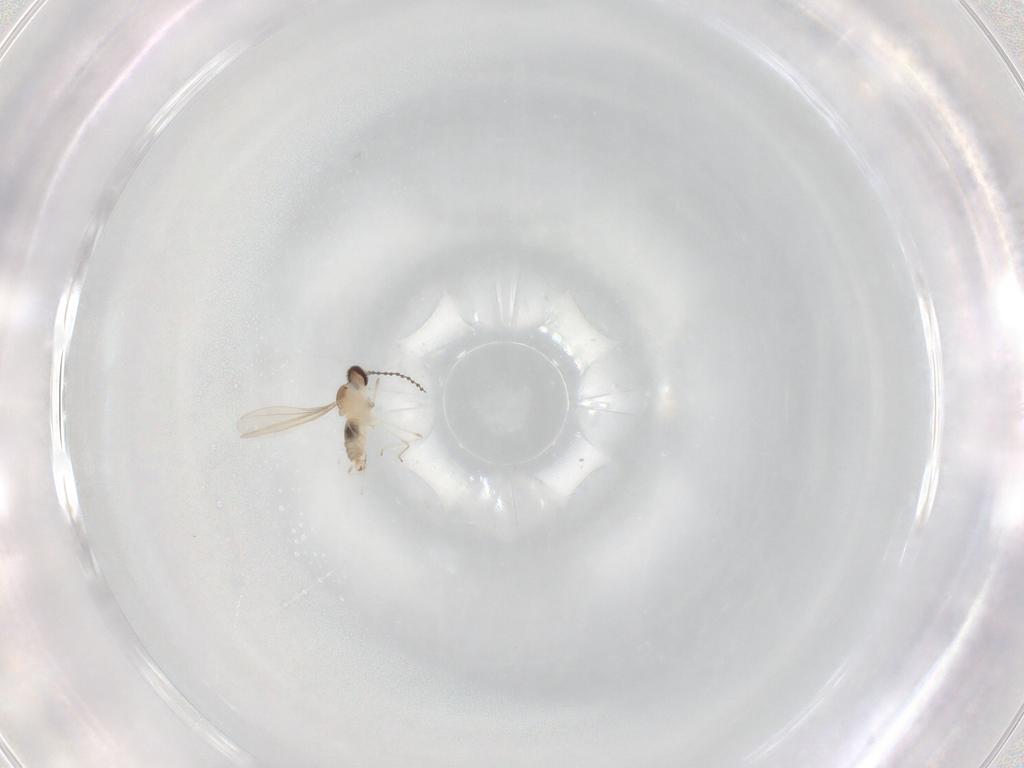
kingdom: Animalia
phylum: Arthropoda
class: Insecta
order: Diptera
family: Cecidomyiidae
